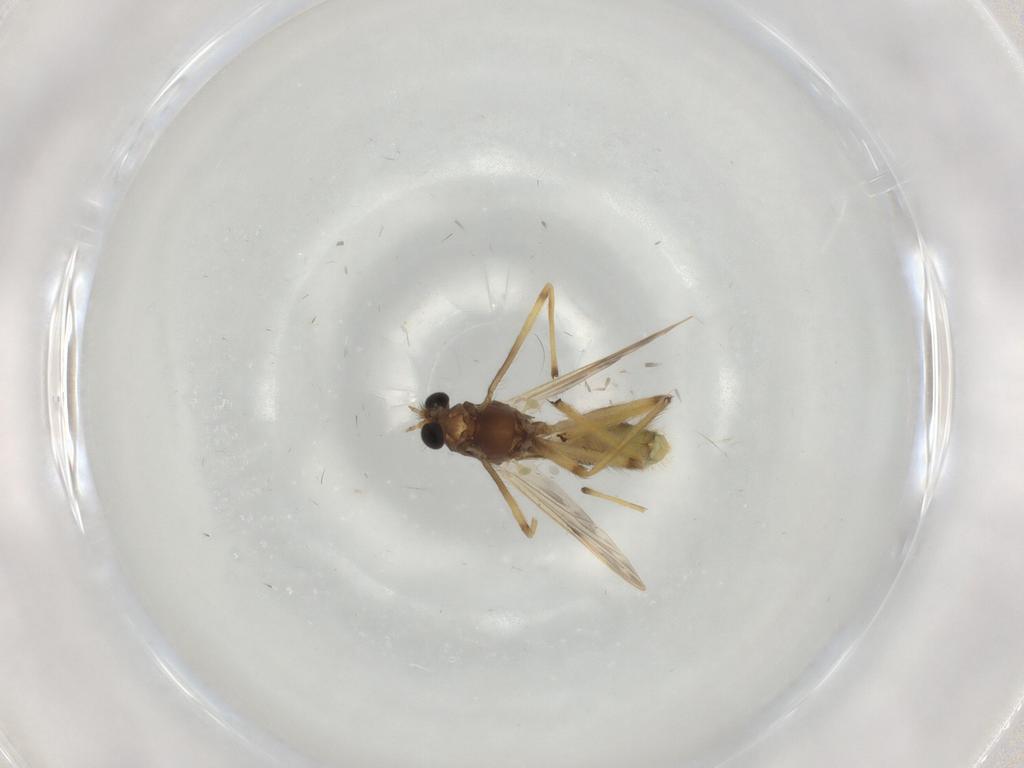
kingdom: Animalia
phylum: Arthropoda
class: Insecta
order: Diptera
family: Chironomidae
